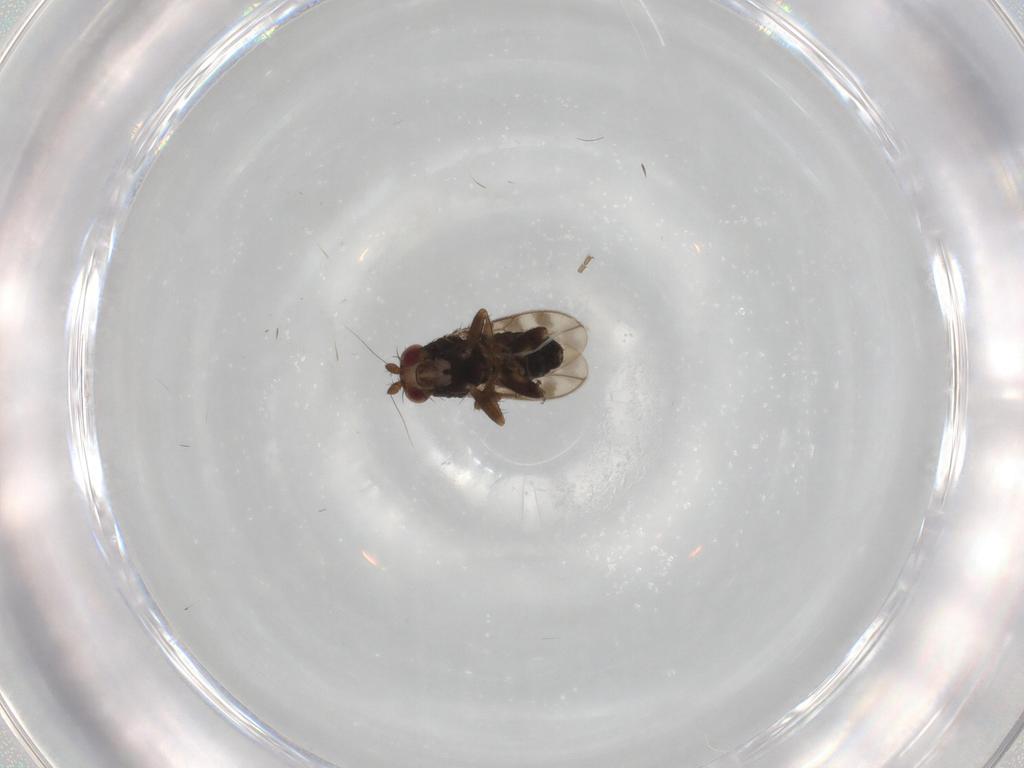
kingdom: Animalia
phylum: Arthropoda
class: Insecta
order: Diptera
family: Sphaeroceridae
